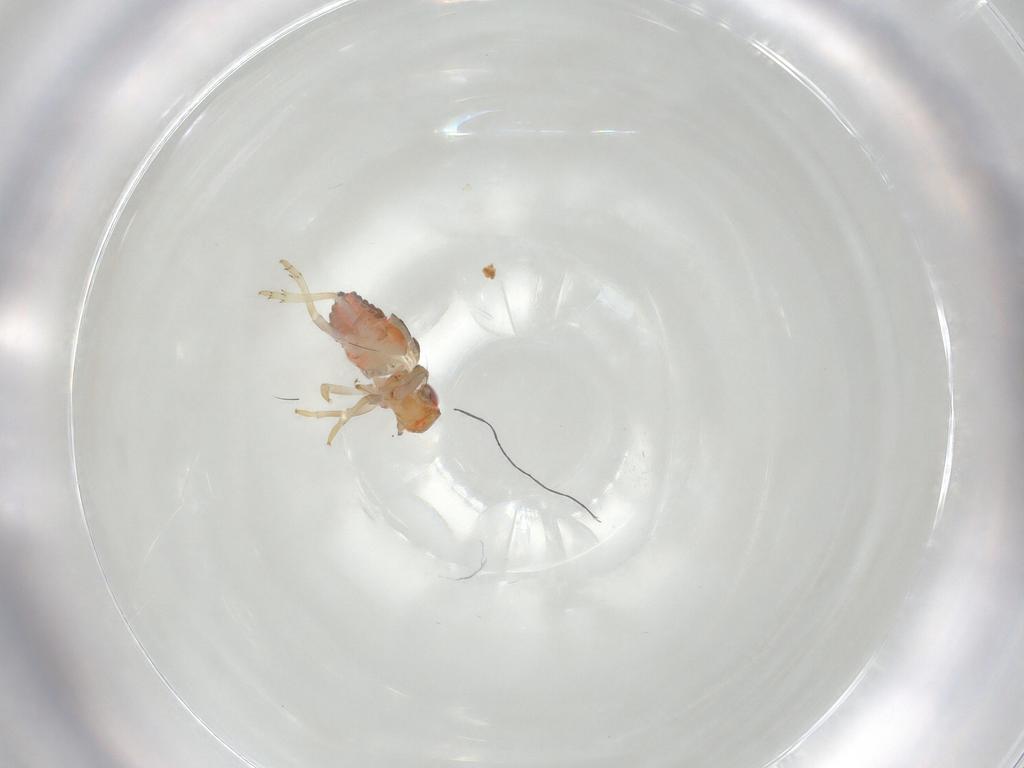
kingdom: Animalia
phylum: Arthropoda
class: Insecta
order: Hemiptera
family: Issidae
